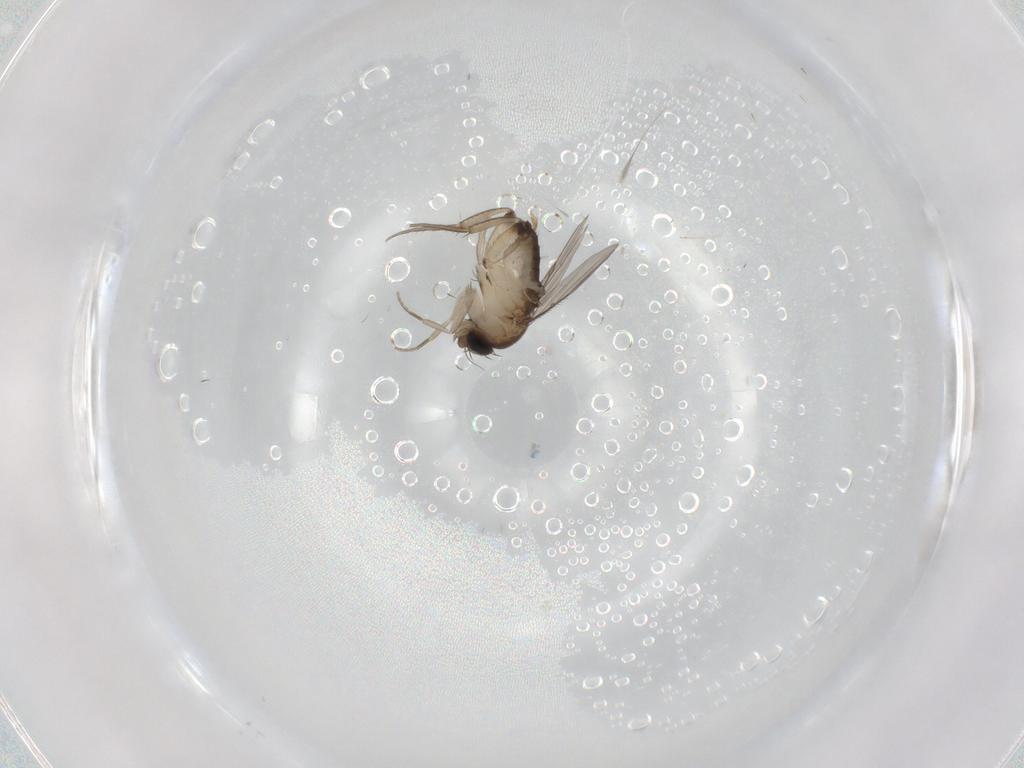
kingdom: Animalia
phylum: Arthropoda
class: Insecta
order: Diptera
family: Phoridae
